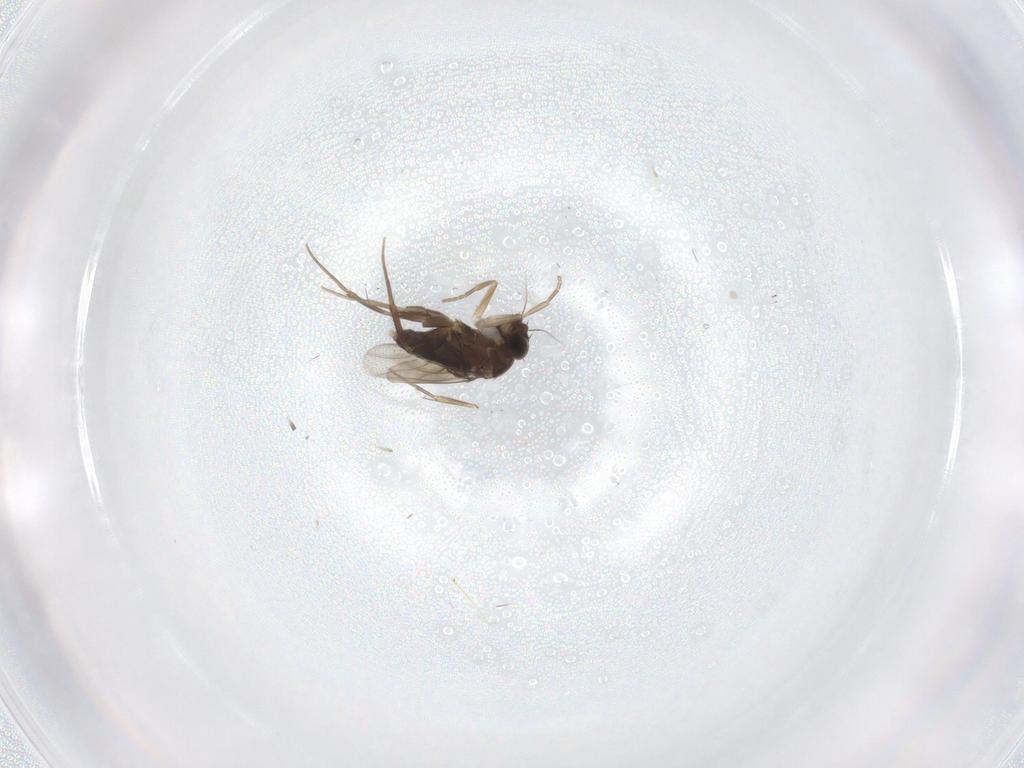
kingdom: Animalia
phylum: Arthropoda
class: Insecta
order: Diptera
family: Phoridae
